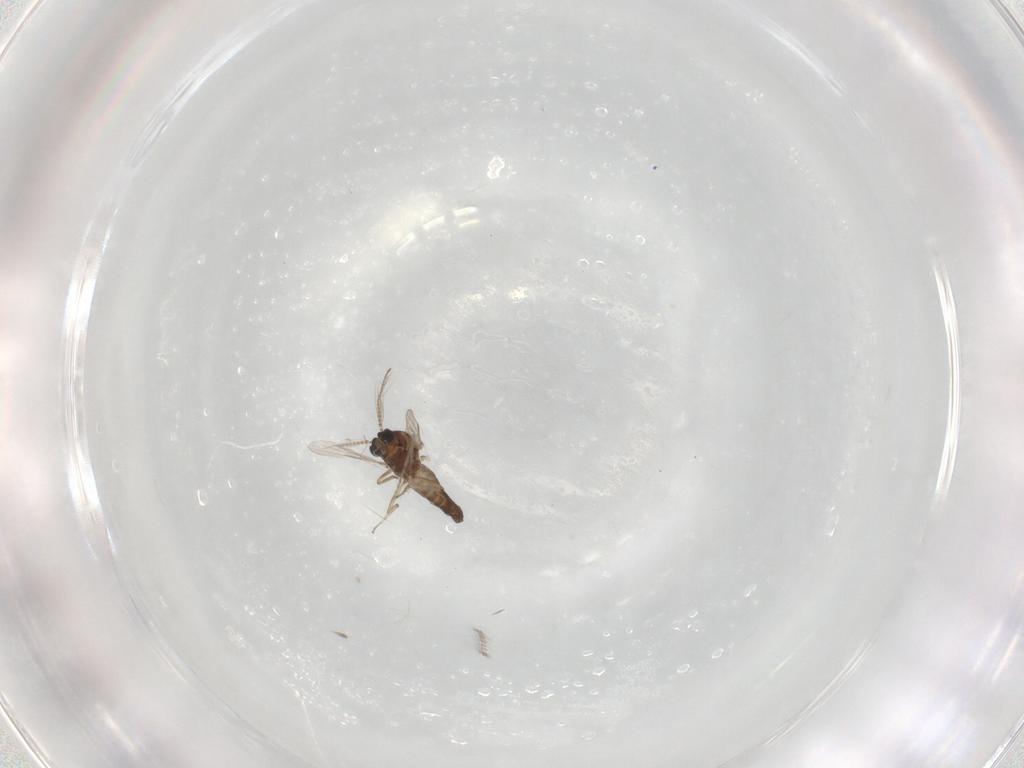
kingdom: Animalia
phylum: Arthropoda
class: Insecta
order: Diptera
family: Ceratopogonidae
